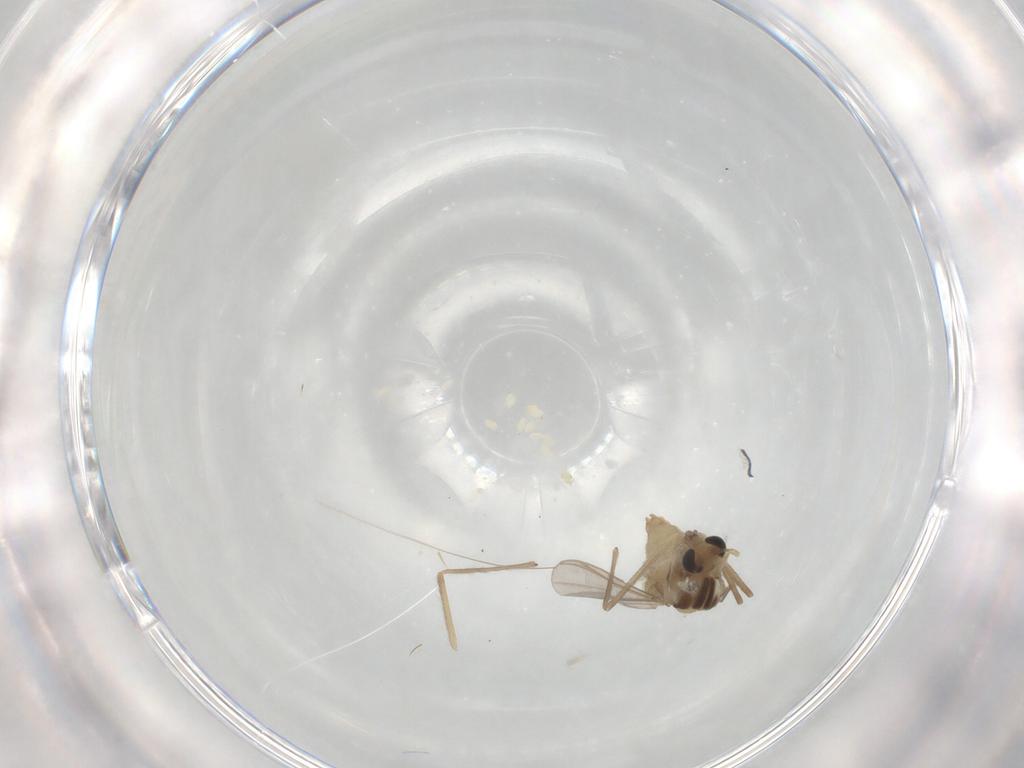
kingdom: Animalia
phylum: Arthropoda
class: Insecta
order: Diptera
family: Chironomidae
